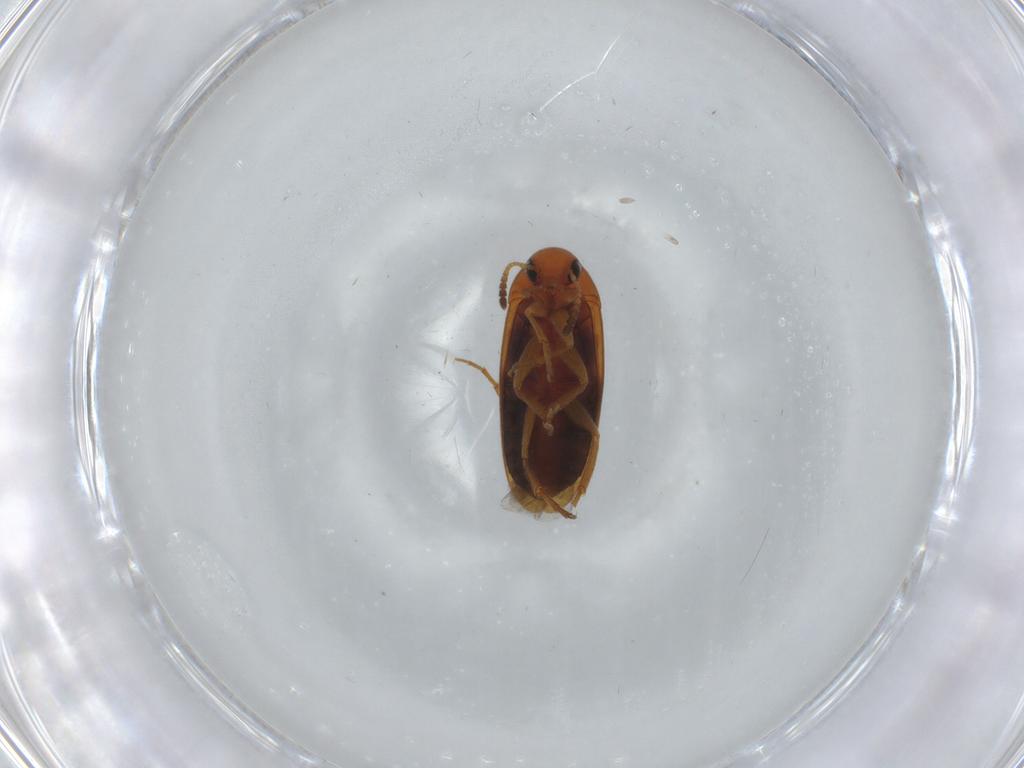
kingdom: Animalia
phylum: Arthropoda
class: Insecta
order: Coleoptera
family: Scraptiidae
